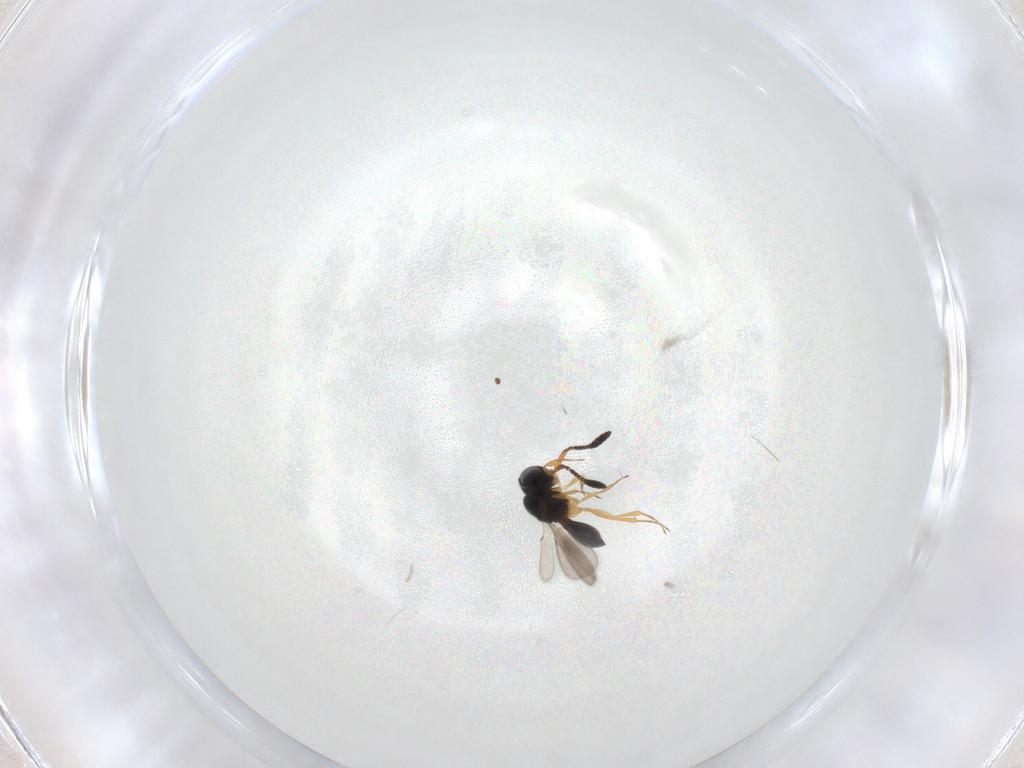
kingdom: Animalia
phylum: Arthropoda
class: Insecta
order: Hymenoptera
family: Scelionidae
